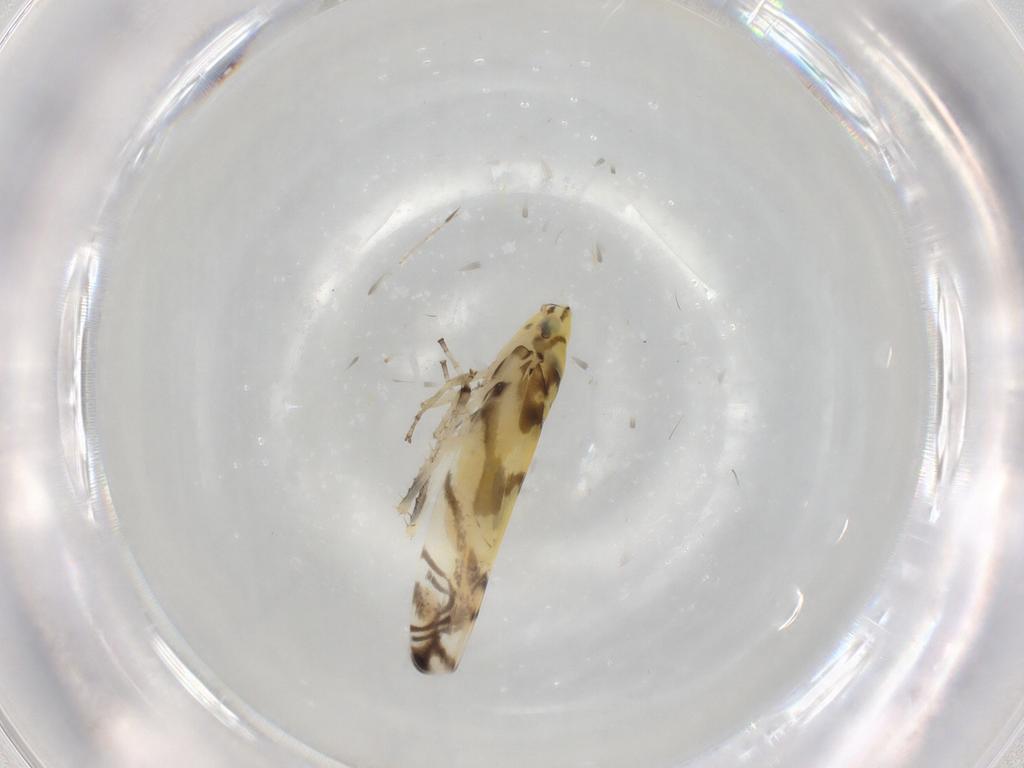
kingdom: Animalia
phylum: Arthropoda
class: Insecta
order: Hemiptera
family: Cicadellidae
